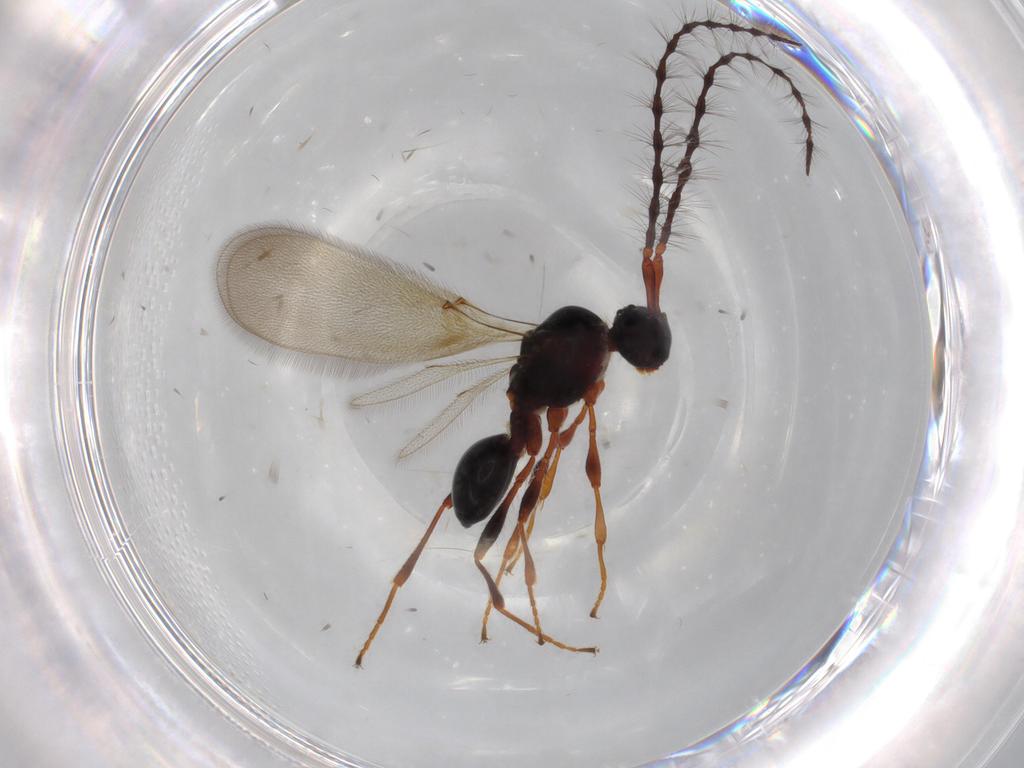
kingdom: Animalia
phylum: Arthropoda
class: Insecta
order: Hymenoptera
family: Diapriidae
